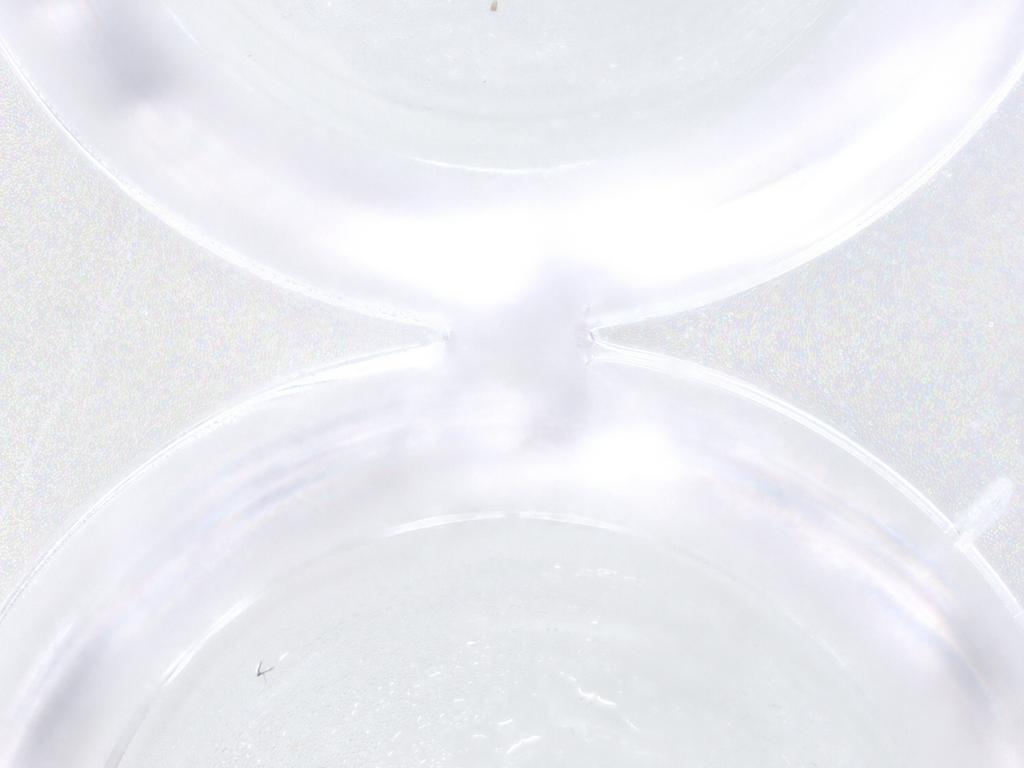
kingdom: Animalia
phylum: Arthropoda
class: Insecta
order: Diptera
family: Psychodidae
